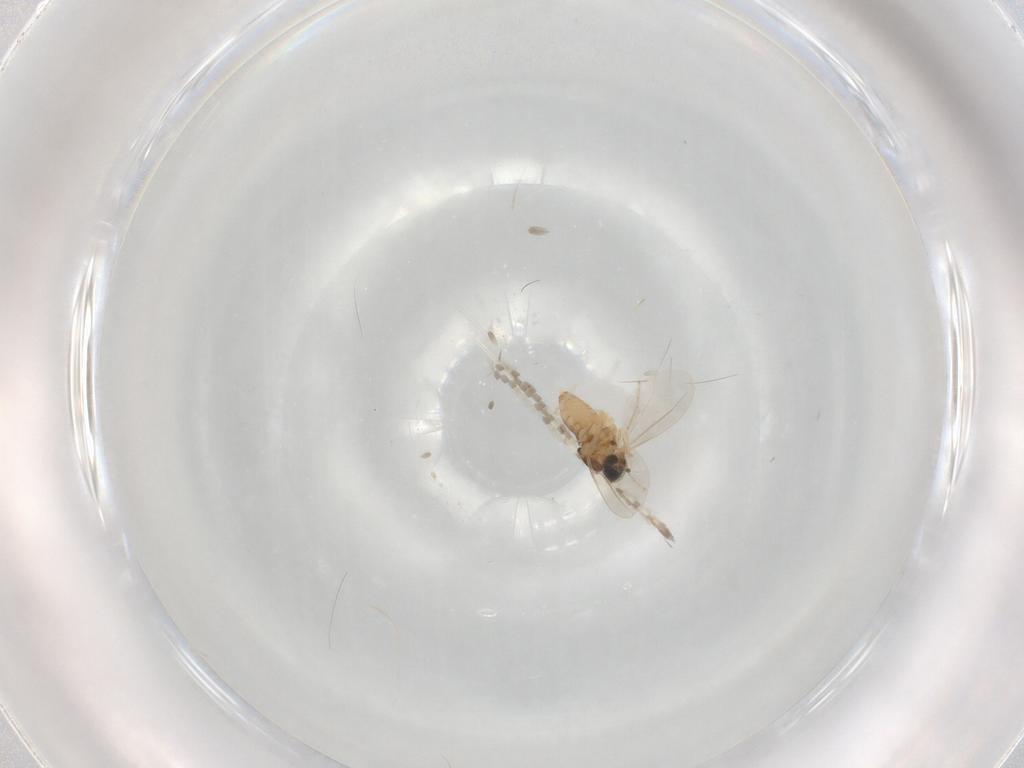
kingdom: Animalia
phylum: Arthropoda
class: Insecta
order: Diptera
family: Cecidomyiidae
